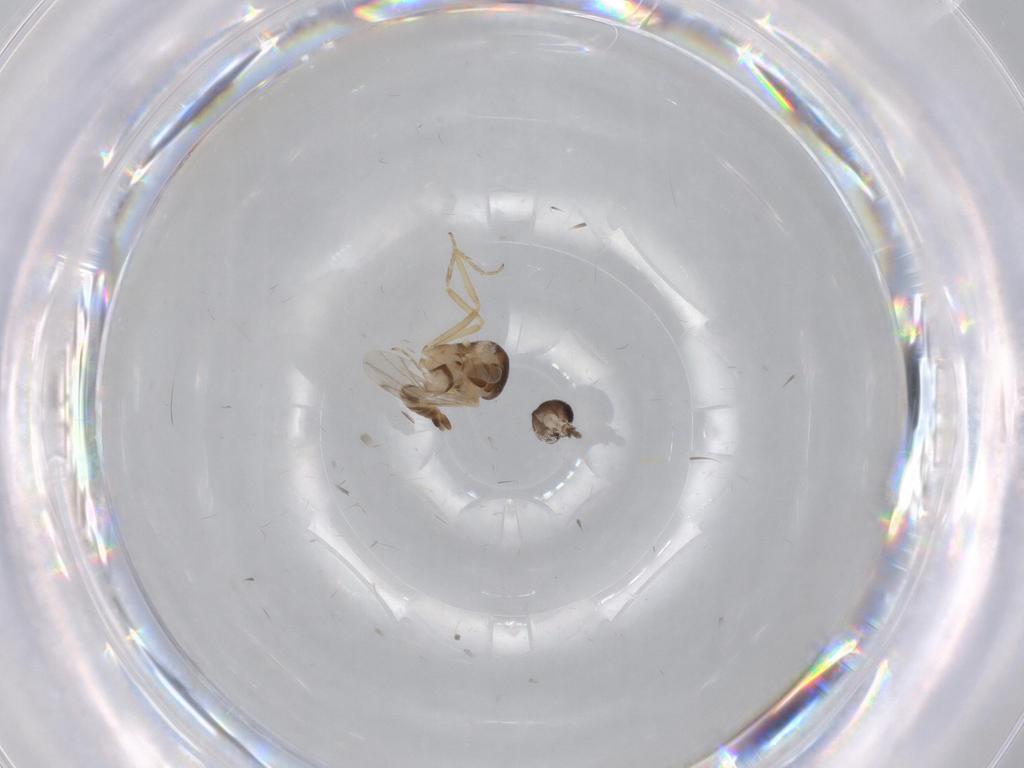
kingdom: Animalia
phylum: Arthropoda
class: Insecta
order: Diptera
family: Ceratopogonidae
